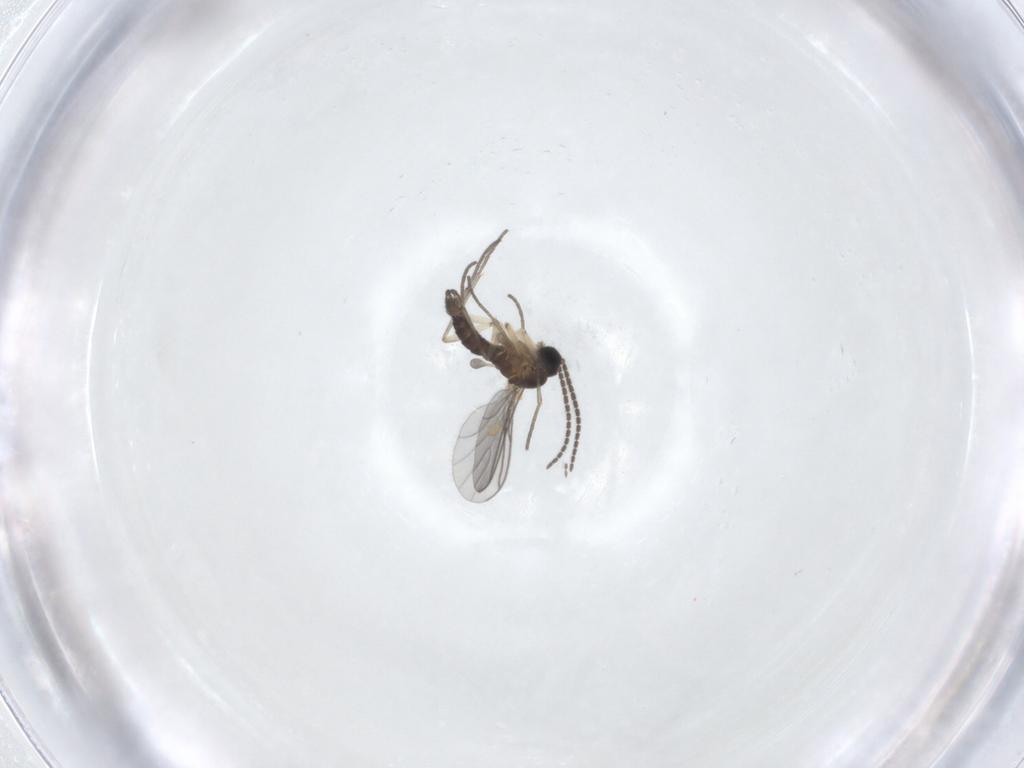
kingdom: Animalia
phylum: Arthropoda
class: Insecta
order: Diptera
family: Sciaridae
